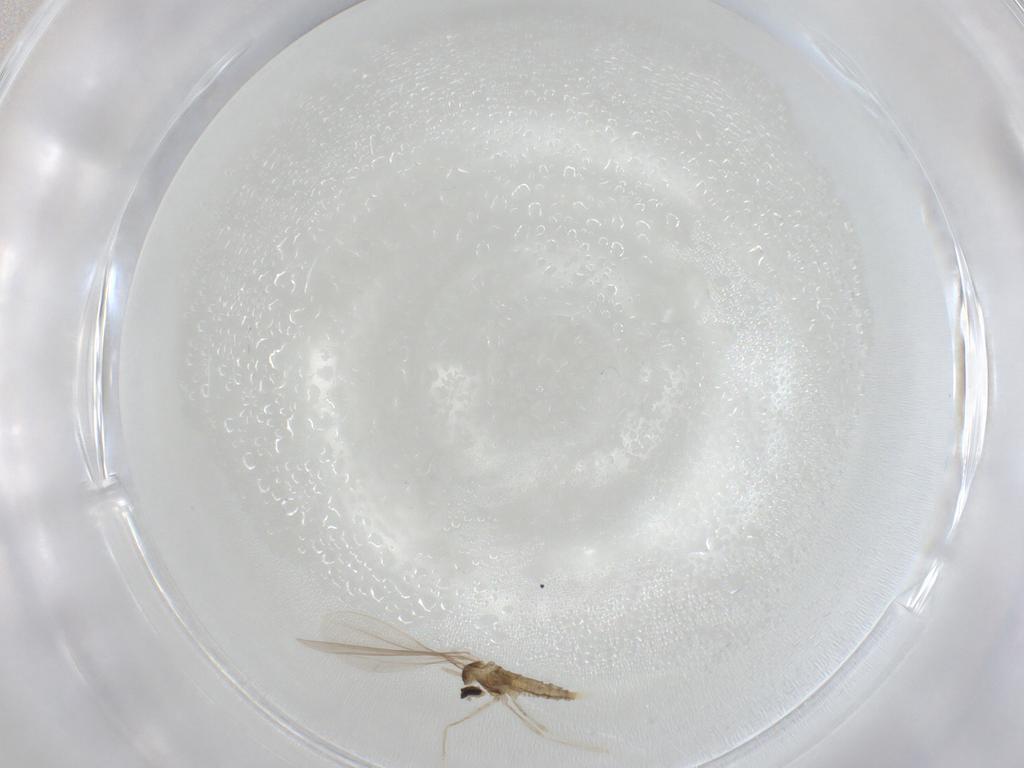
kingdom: Animalia
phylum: Arthropoda
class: Insecta
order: Diptera
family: Cecidomyiidae
